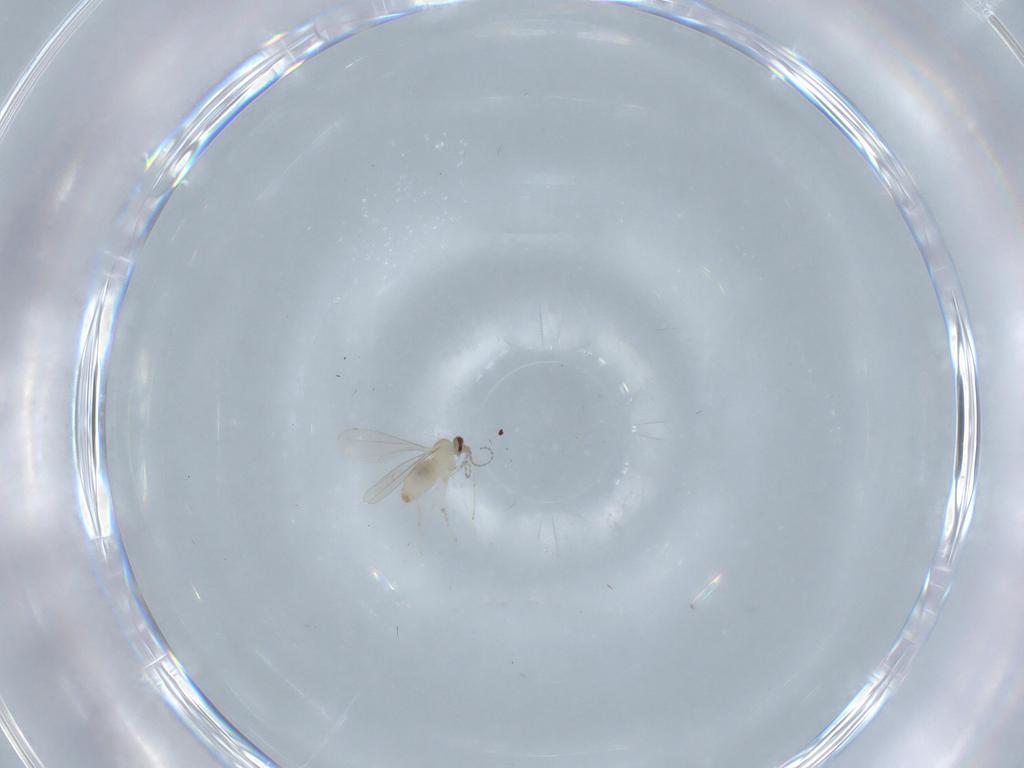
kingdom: Animalia
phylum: Arthropoda
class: Insecta
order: Diptera
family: Cecidomyiidae
